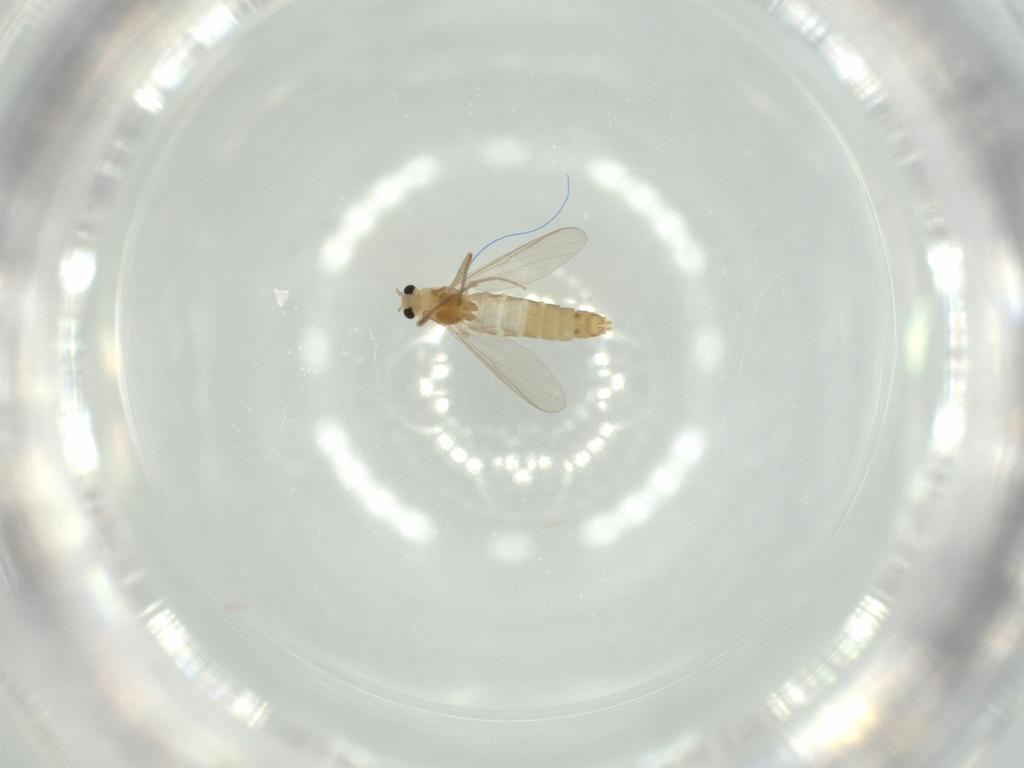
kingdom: Animalia
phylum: Arthropoda
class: Insecta
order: Diptera
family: Chironomidae
